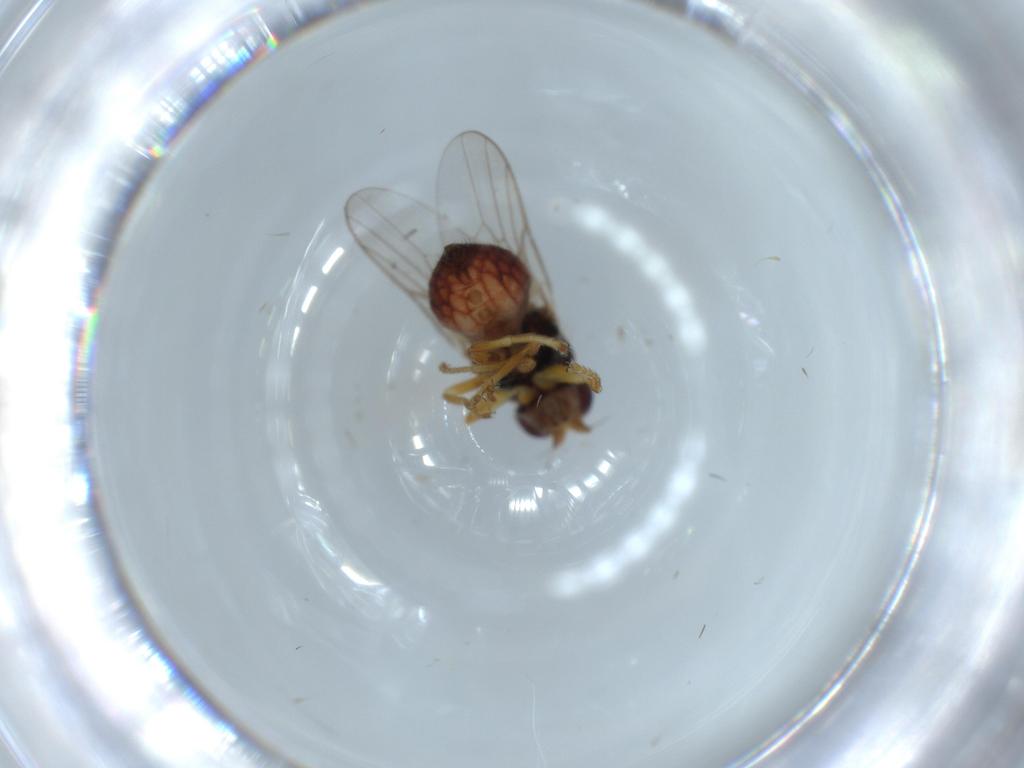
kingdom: Animalia
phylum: Arthropoda
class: Insecta
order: Diptera
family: Chloropidae
